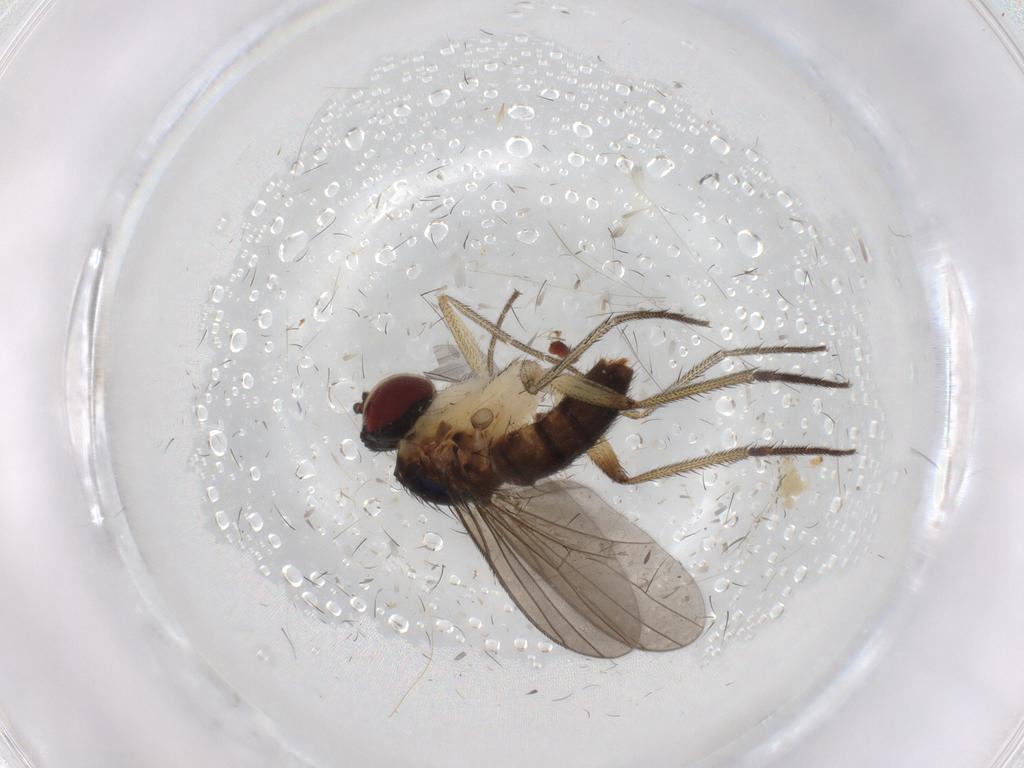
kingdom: Animalia
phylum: Arthropoda
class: Insecta
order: Diptera
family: Dolichopodidae
